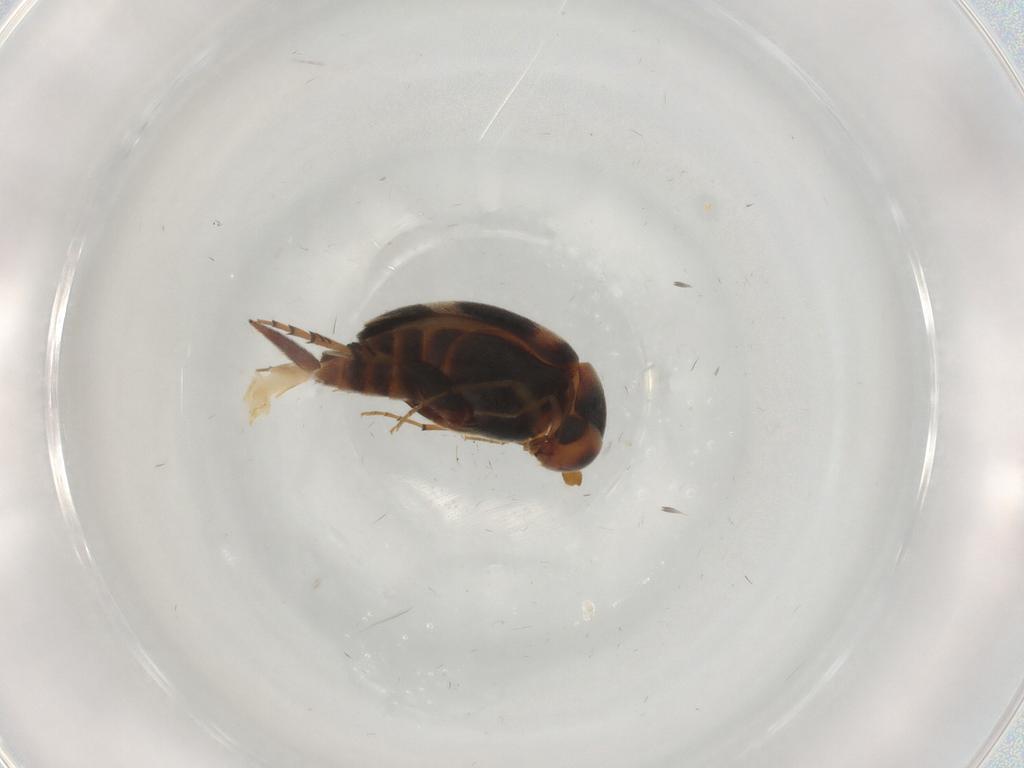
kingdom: Animalia
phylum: Arthropoda
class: Insecta
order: Coleoptera
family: Mordellidae
